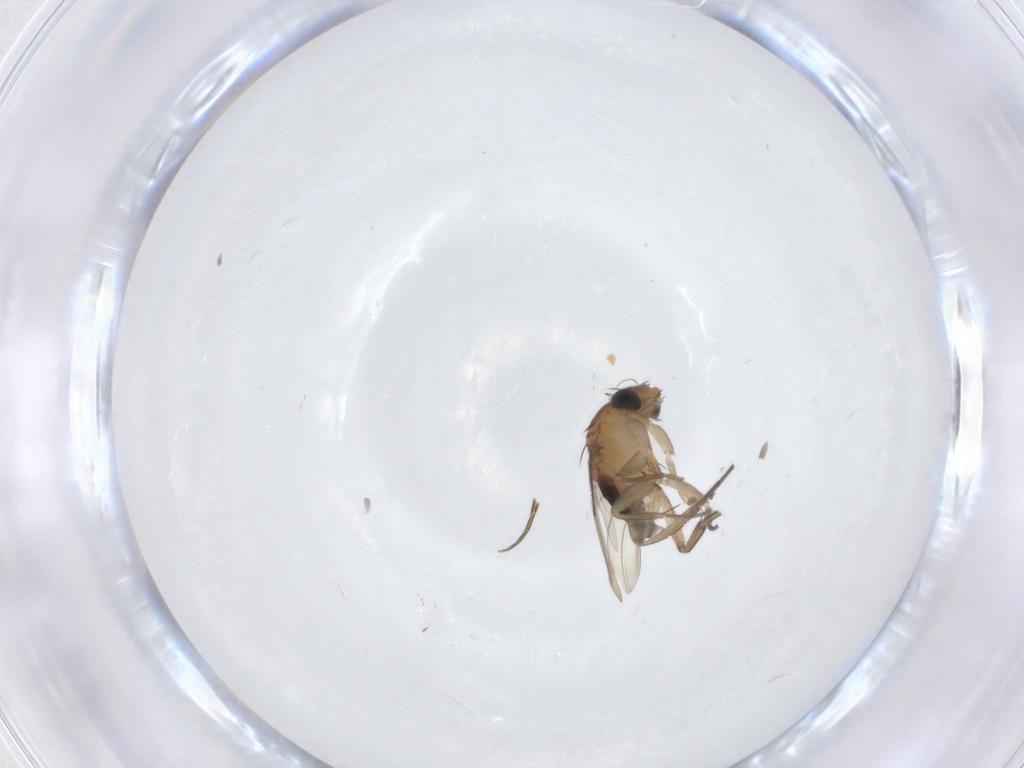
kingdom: Animalia
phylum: Arthropoda
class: Insecta
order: Diptera
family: Phoridae
